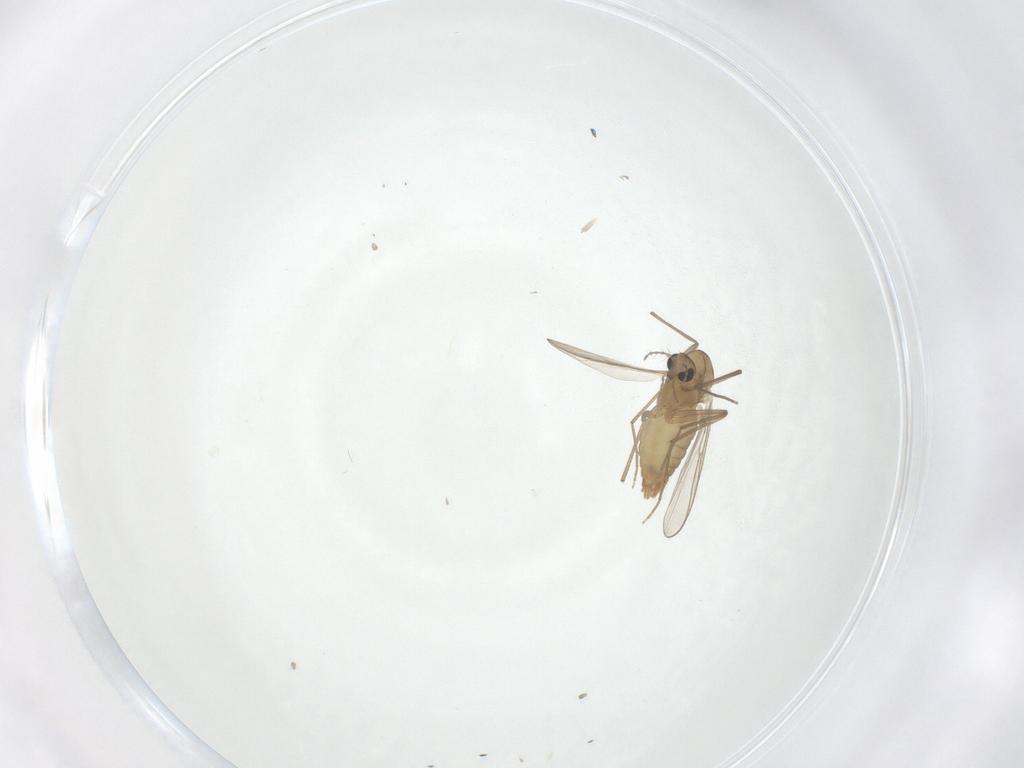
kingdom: Animalia
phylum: Arthropoda
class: Insecta
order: Diptera
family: Chironomidae
